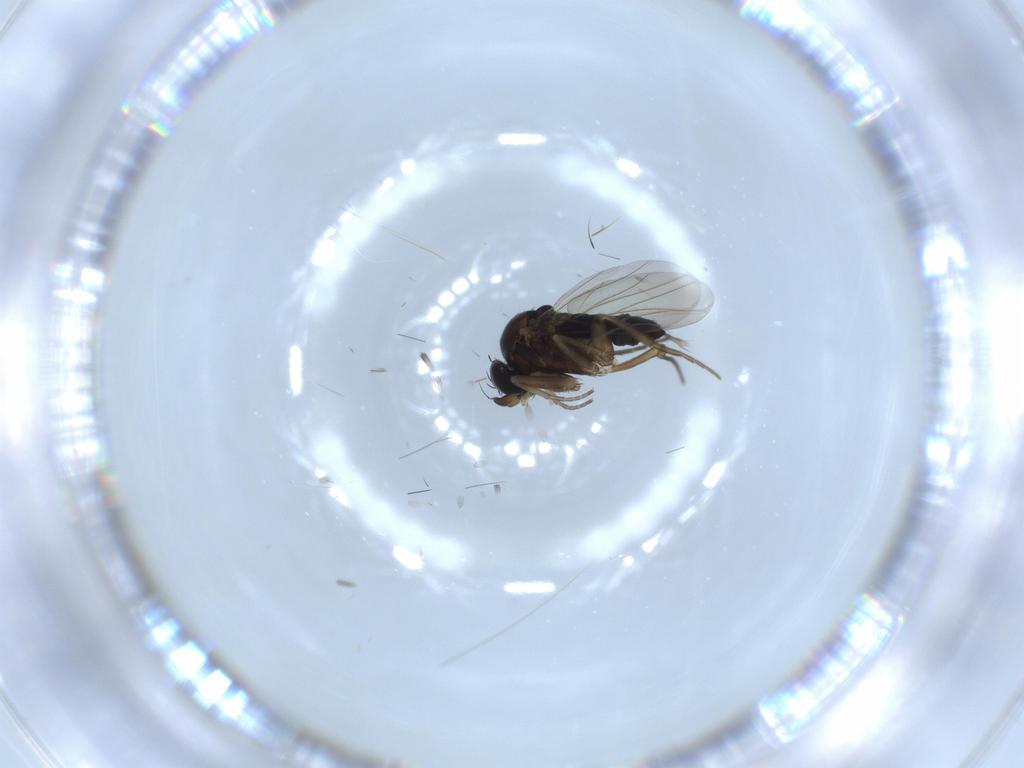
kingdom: Animalia
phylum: Arthropoda
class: Insecta
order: Diptera
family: Phoridae
